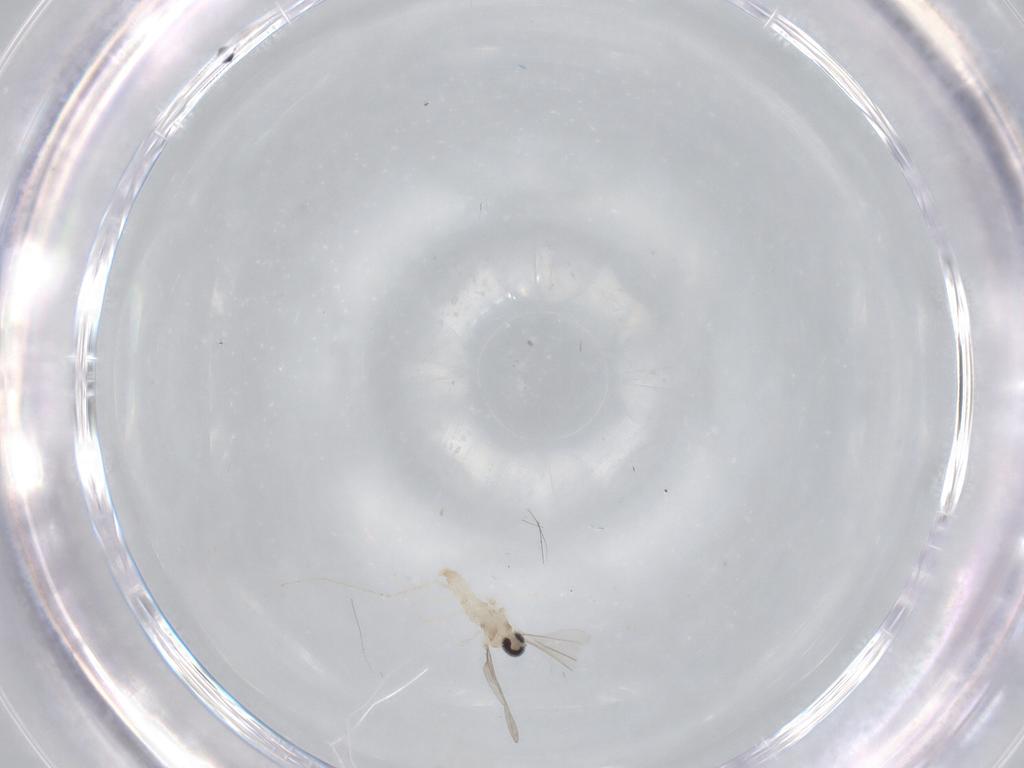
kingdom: Animalia
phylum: Arthropoda
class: Insecta
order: Diptera
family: Cecidomyiidae
